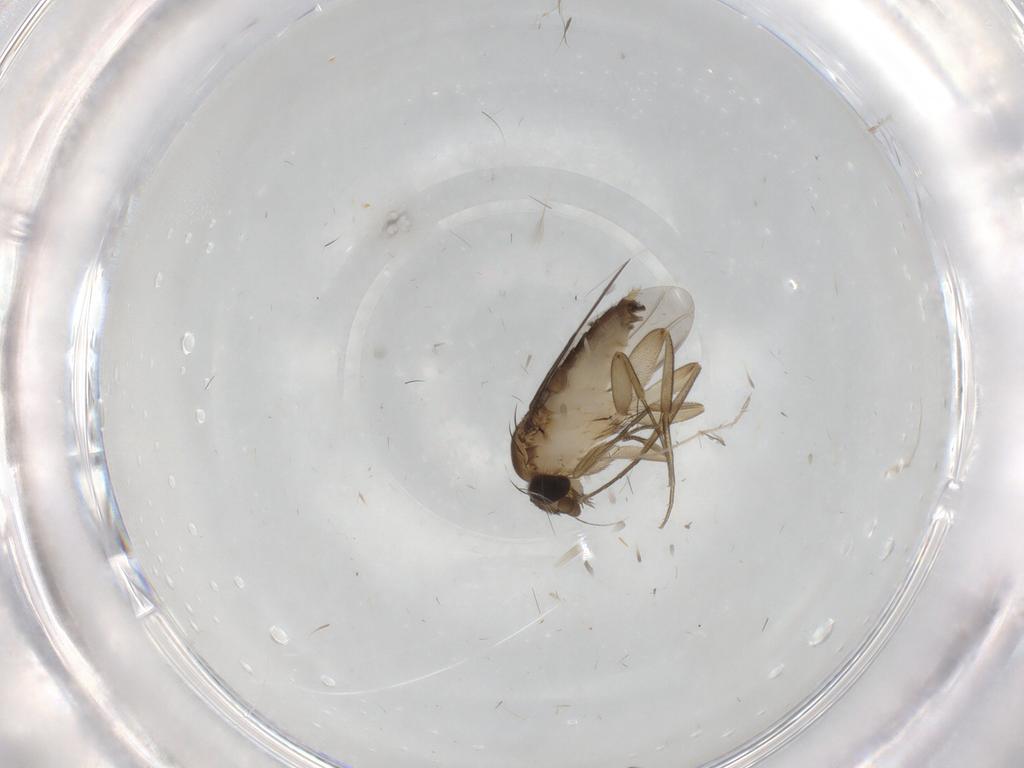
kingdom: Animalia
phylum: Arthropoda
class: Insecta
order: Diptera
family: Phoridae
